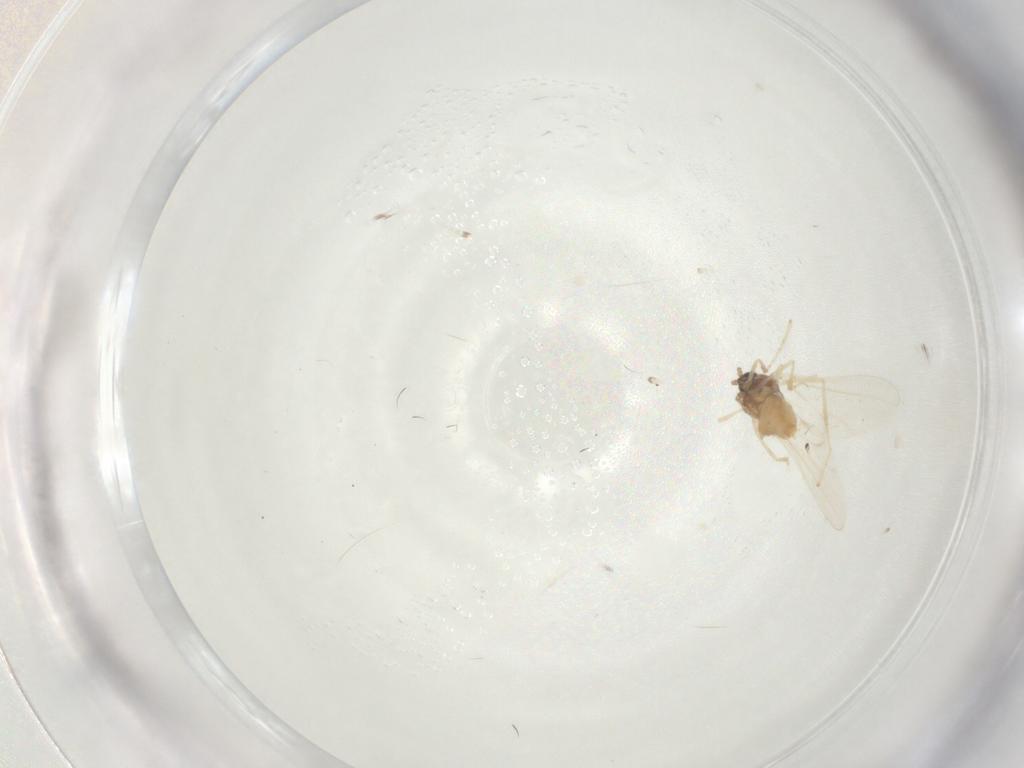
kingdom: Animalia
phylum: Arthropoda
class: Insecta
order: Diptera
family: Cecidomyiidae
